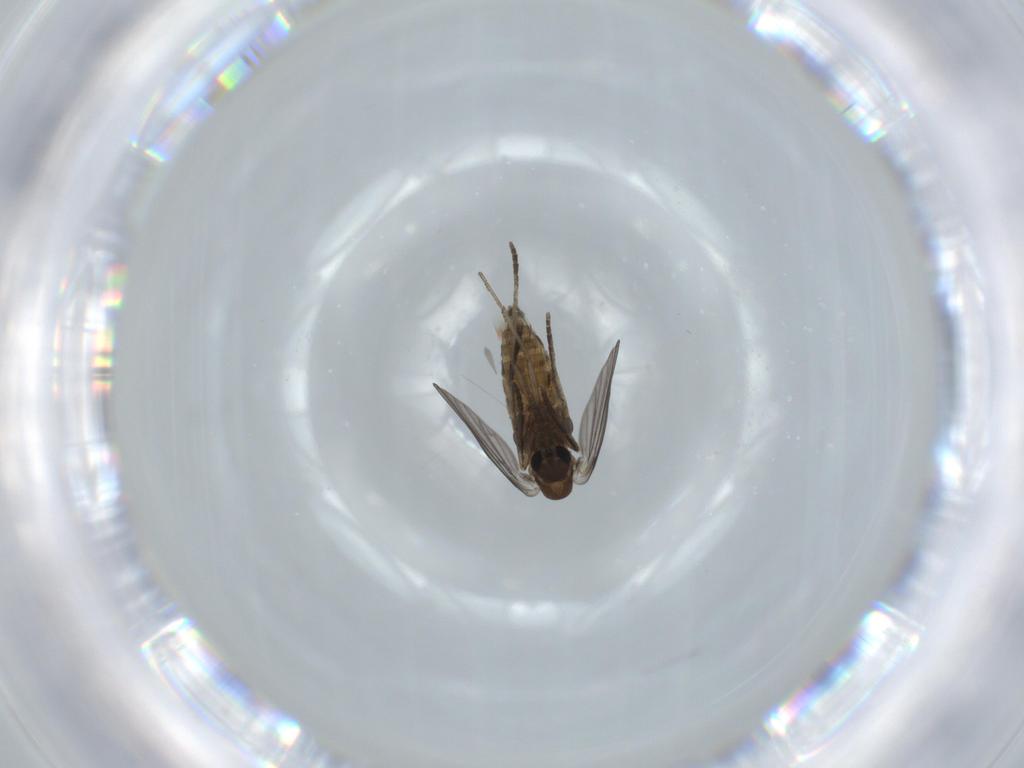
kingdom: Animalia
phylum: Arthropoda
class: Insecta
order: Diptera
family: Psychodidae
